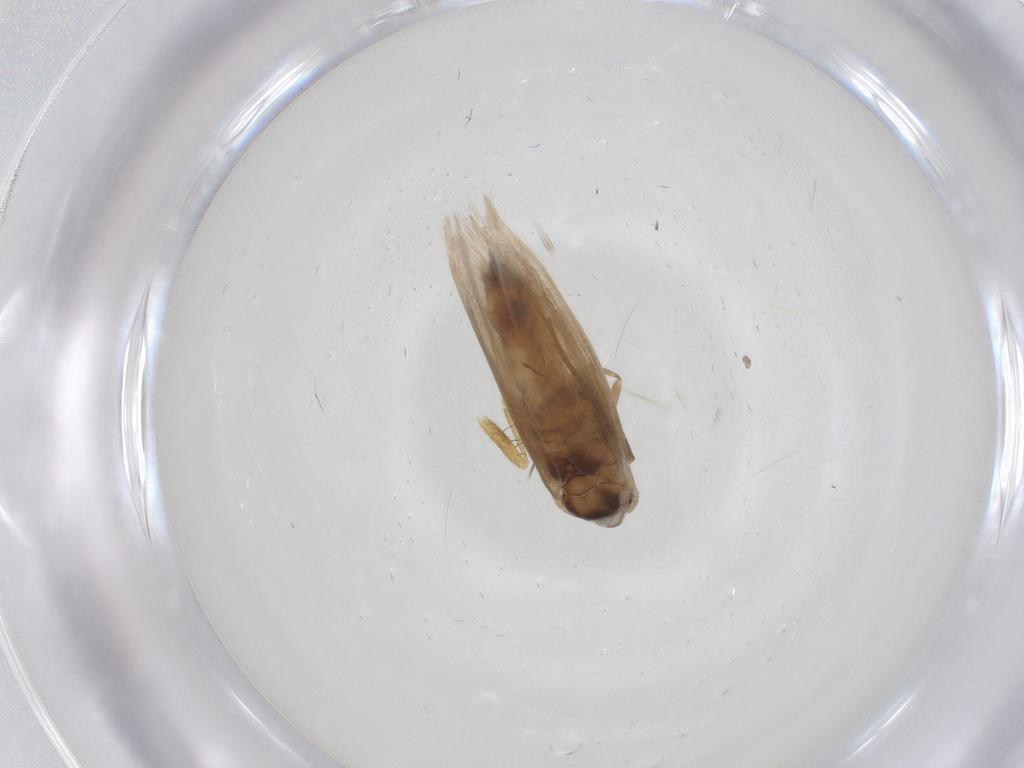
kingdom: Animalia
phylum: Arthropoda
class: Insecta
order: Lepidoptera
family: Bucculatricidae
